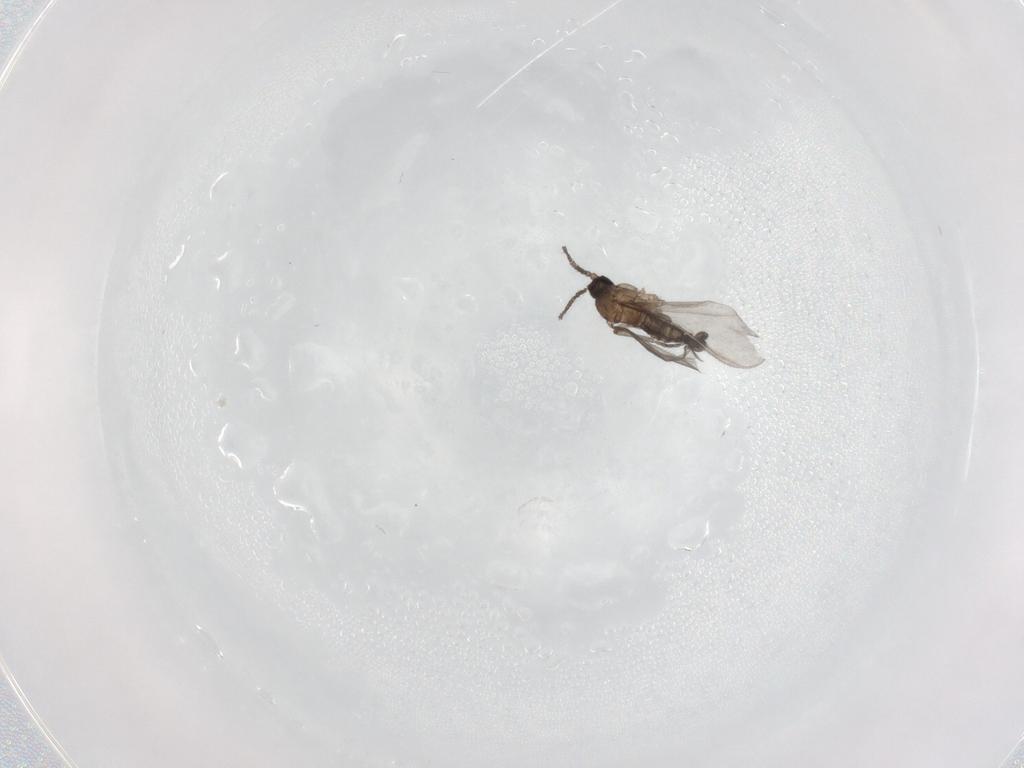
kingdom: Animalia
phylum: Arthropoda
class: Insecta
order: Diptera
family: Sciaridae
